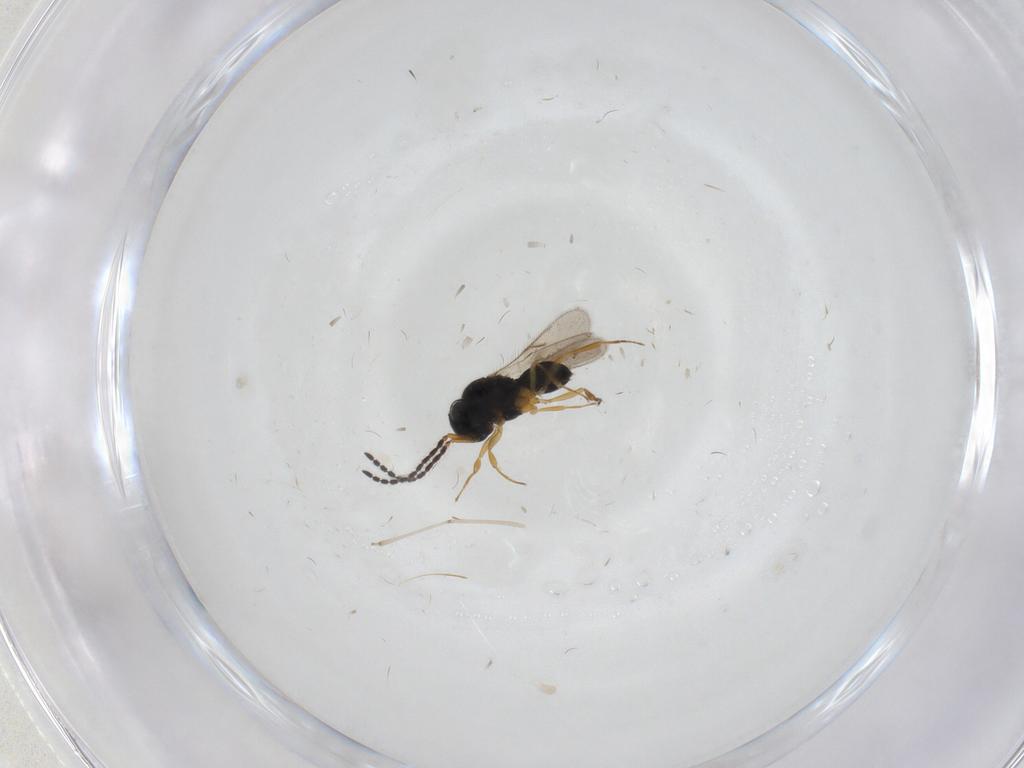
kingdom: Animalia
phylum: Arthropoda
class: Insecta
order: Hymenoptera
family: Scelionidae
